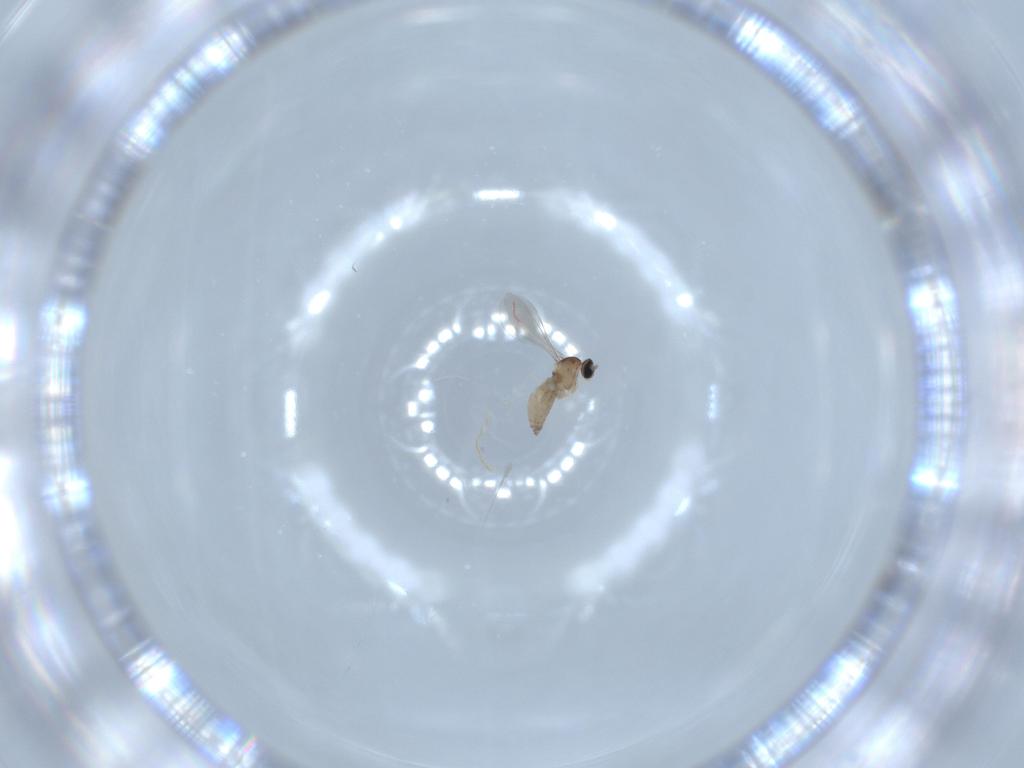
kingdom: Animalia
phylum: Arthropoda
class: Insecta
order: Diptera
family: Cecidomyiidae
